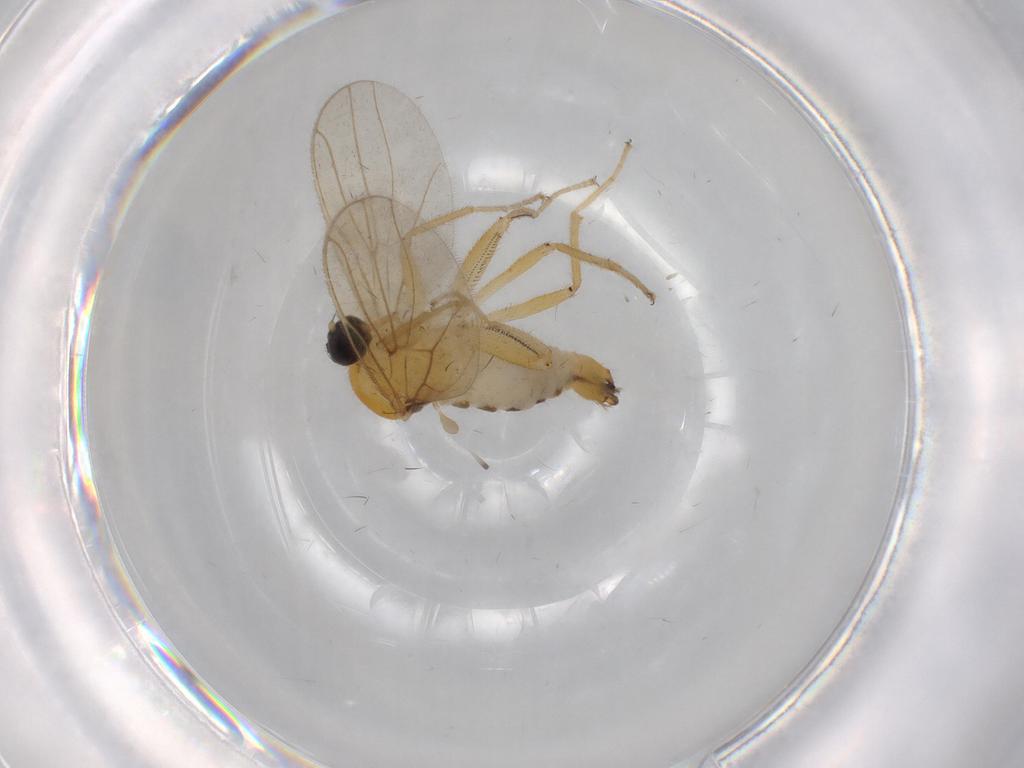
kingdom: Animalia
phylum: Arthropoda
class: Insecta
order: Diptera
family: Hybotidae
